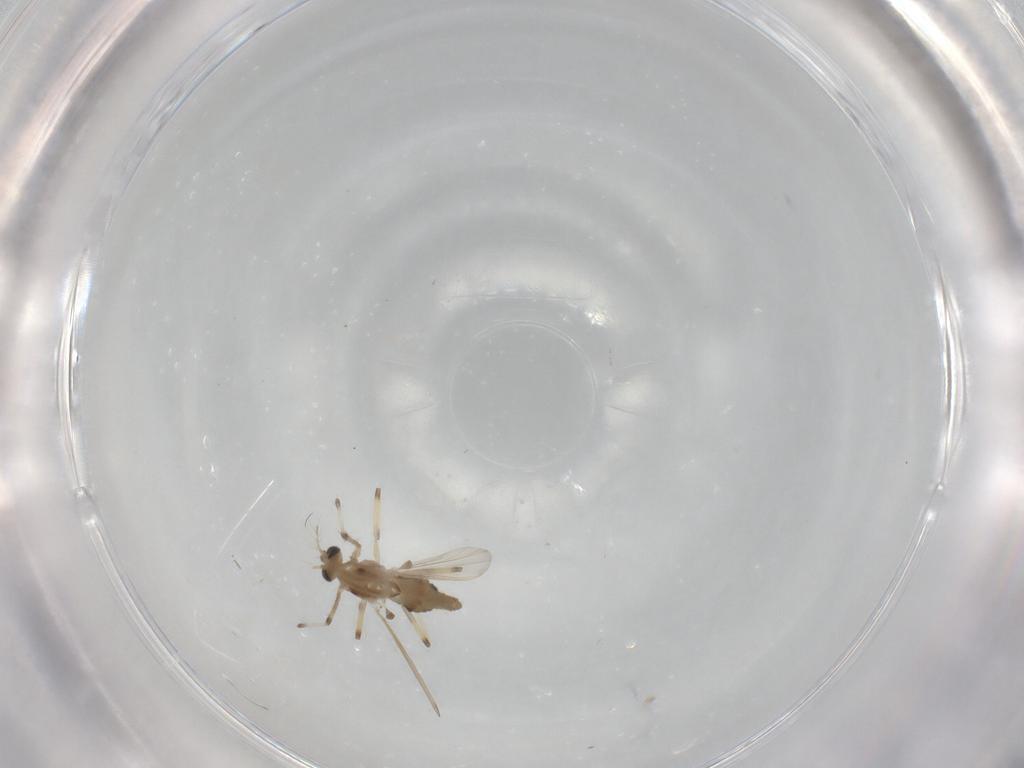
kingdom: Animalia
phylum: Arthropoda
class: Insecta
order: Diptera
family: Chironomidae
